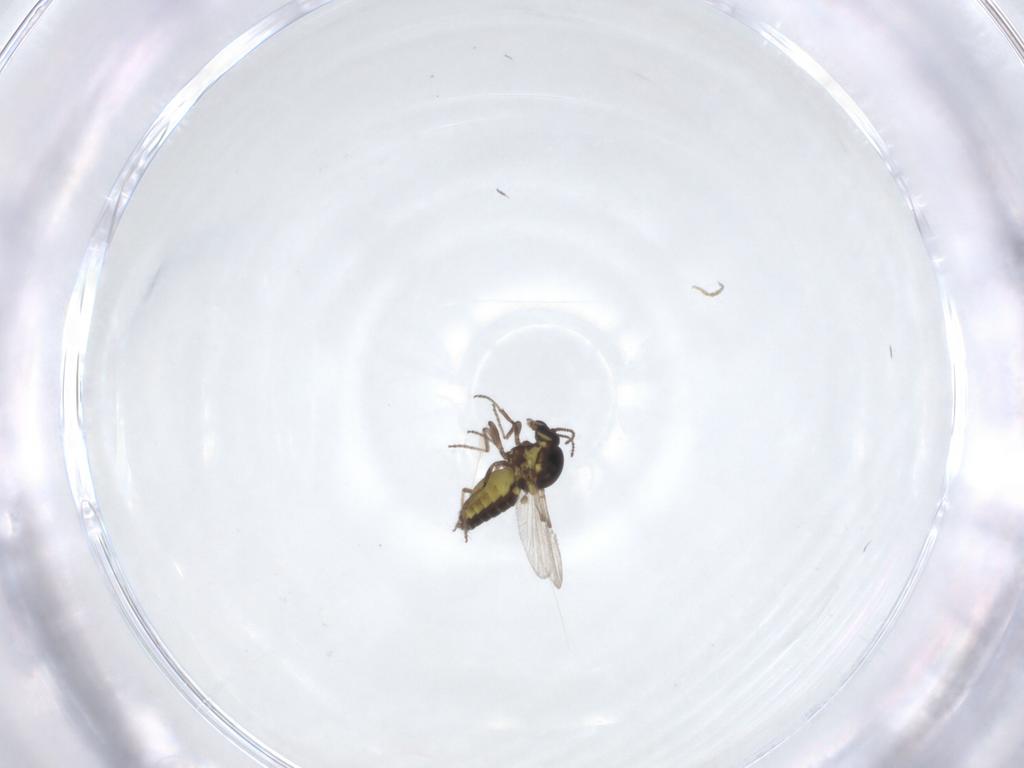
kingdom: Animalia
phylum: Arthropoda
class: Insecta
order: Diptera
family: Ceratopogonidae
